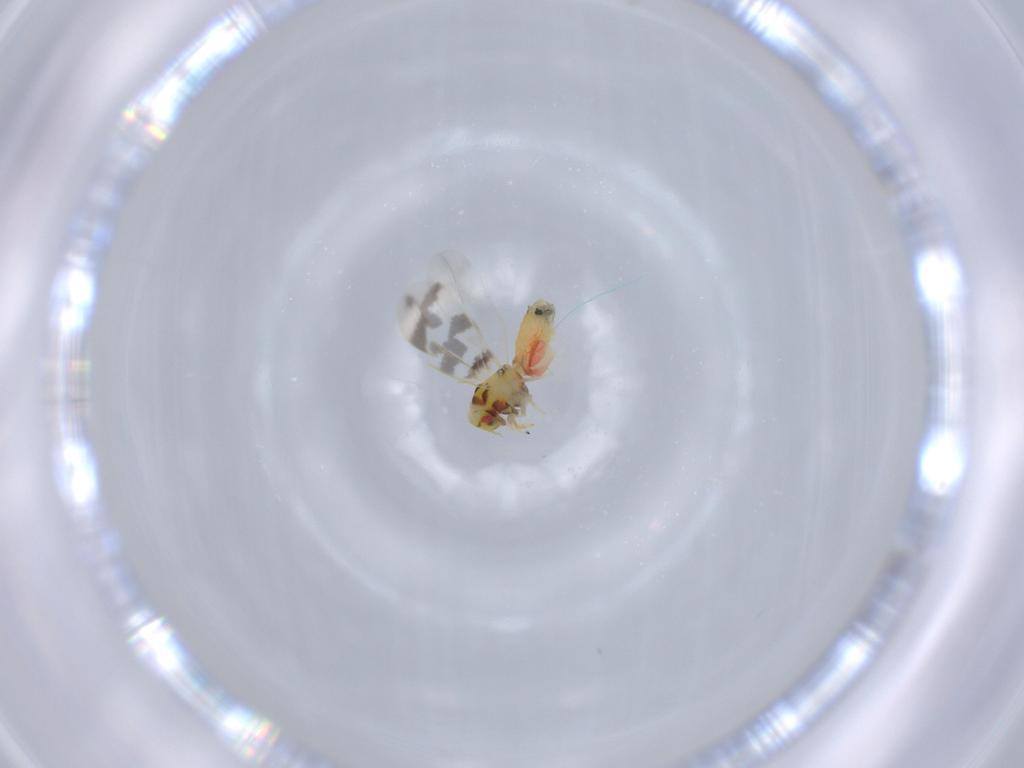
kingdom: Animalia
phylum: Arthropoda
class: Insecta
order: Hemiptera
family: Aleyrodidae
